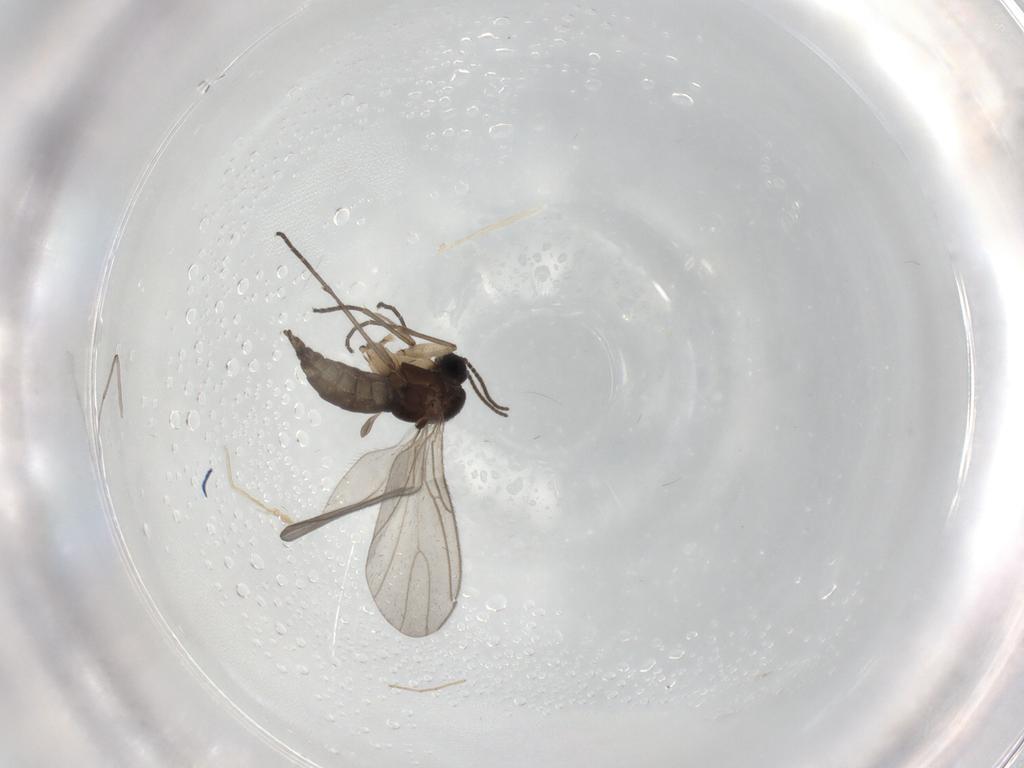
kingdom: Animalia
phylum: Arthropoda
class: Insecta
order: Diptera
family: Sciaridae
